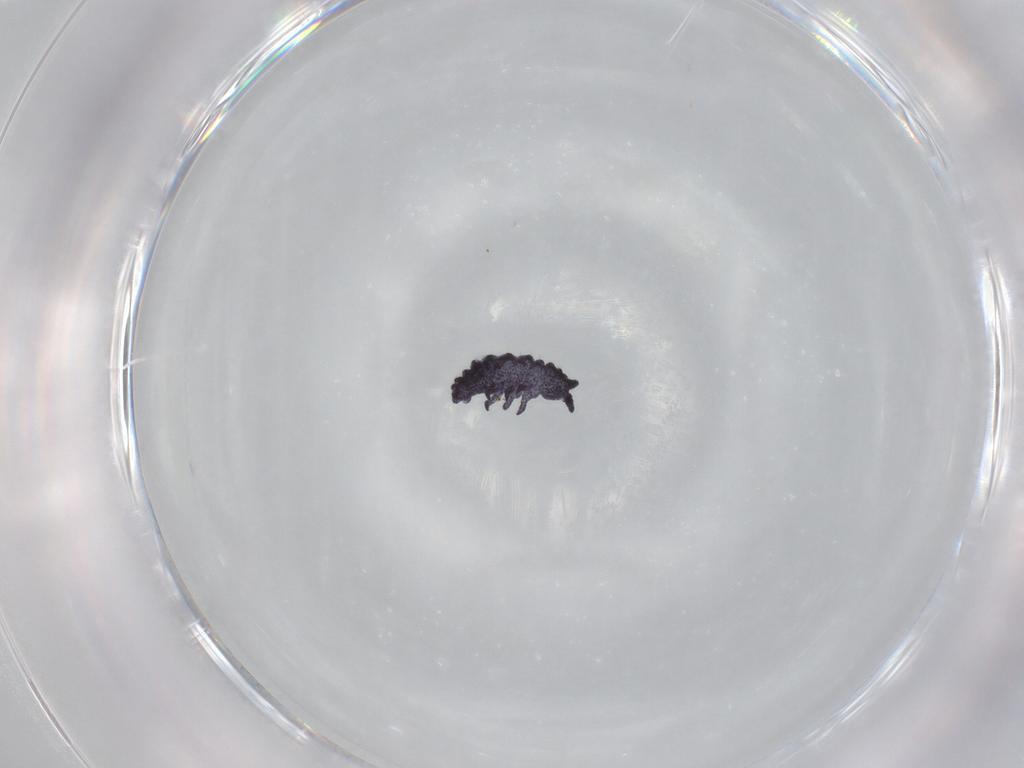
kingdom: Animalia
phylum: Arthropoda
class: Collembola
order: Poduromorpha
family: Neanuridae
